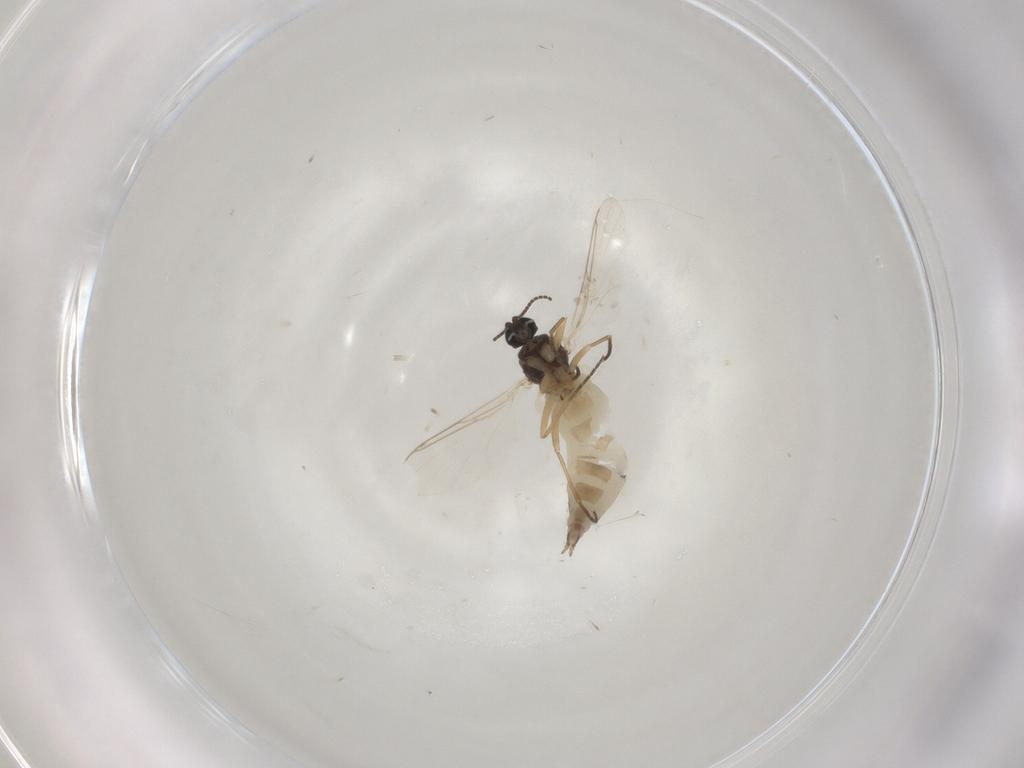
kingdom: Animalia
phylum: Arthropoda
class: Insecta
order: Diptera
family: Sciaridae
